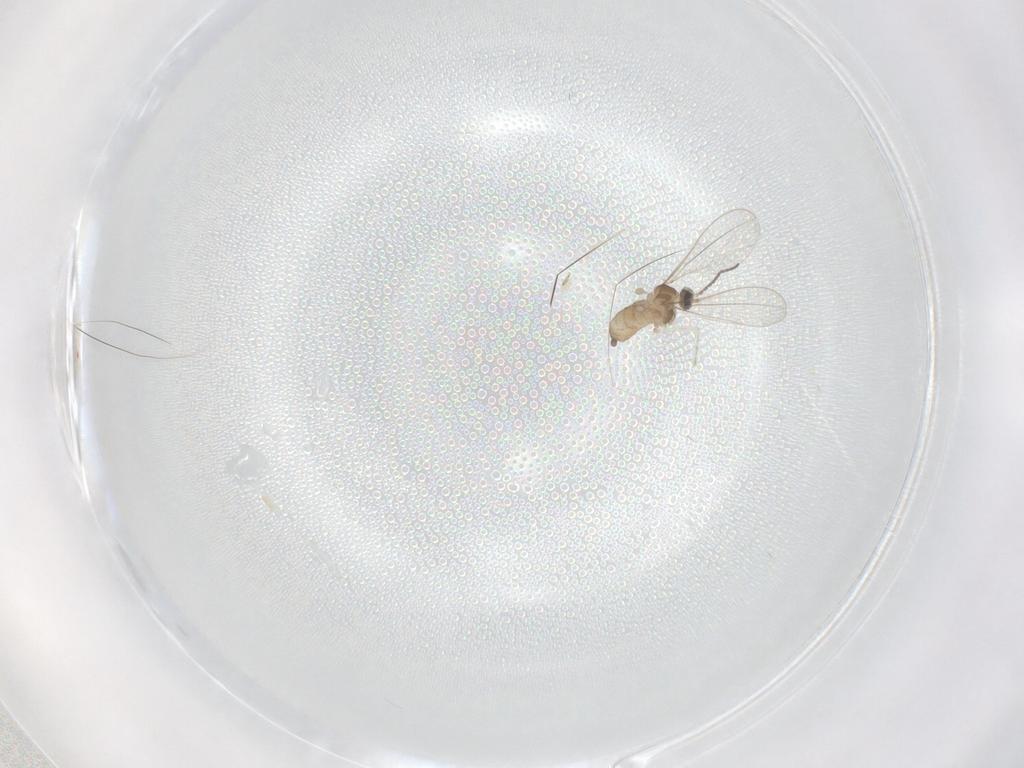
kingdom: Animalia
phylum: Arthropoda
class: Insecta
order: Diptera
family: Cecidomyiidae
